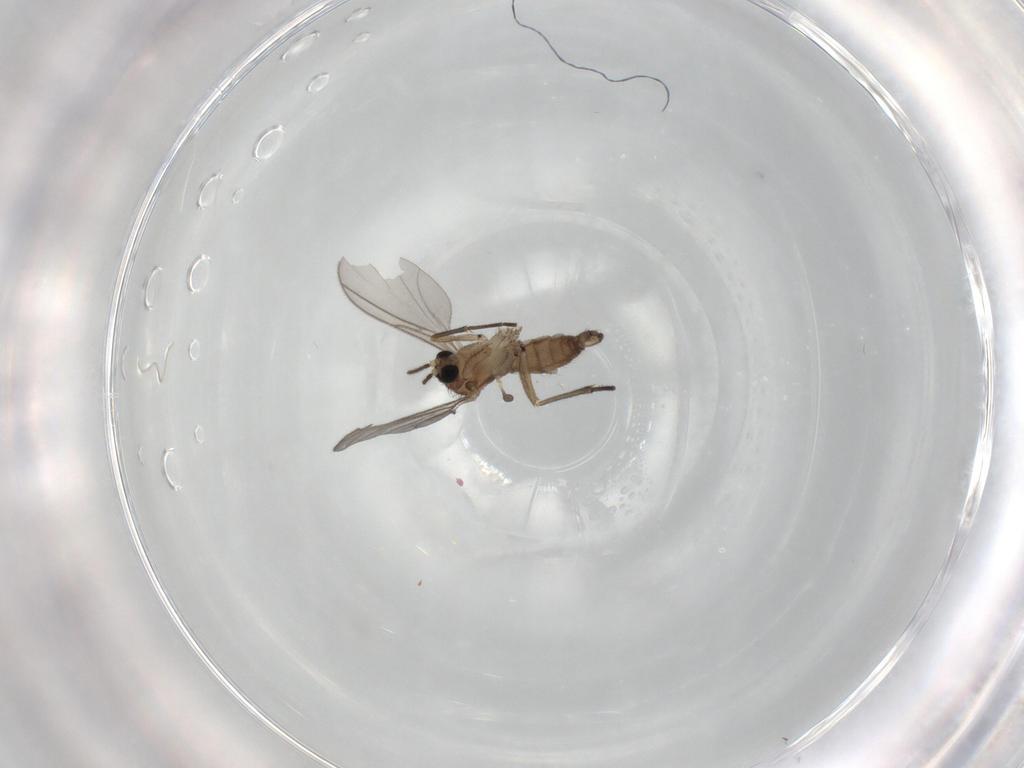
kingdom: Animalia
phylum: Arthropoda
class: Insecta
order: Diptera
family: Sciaridae
